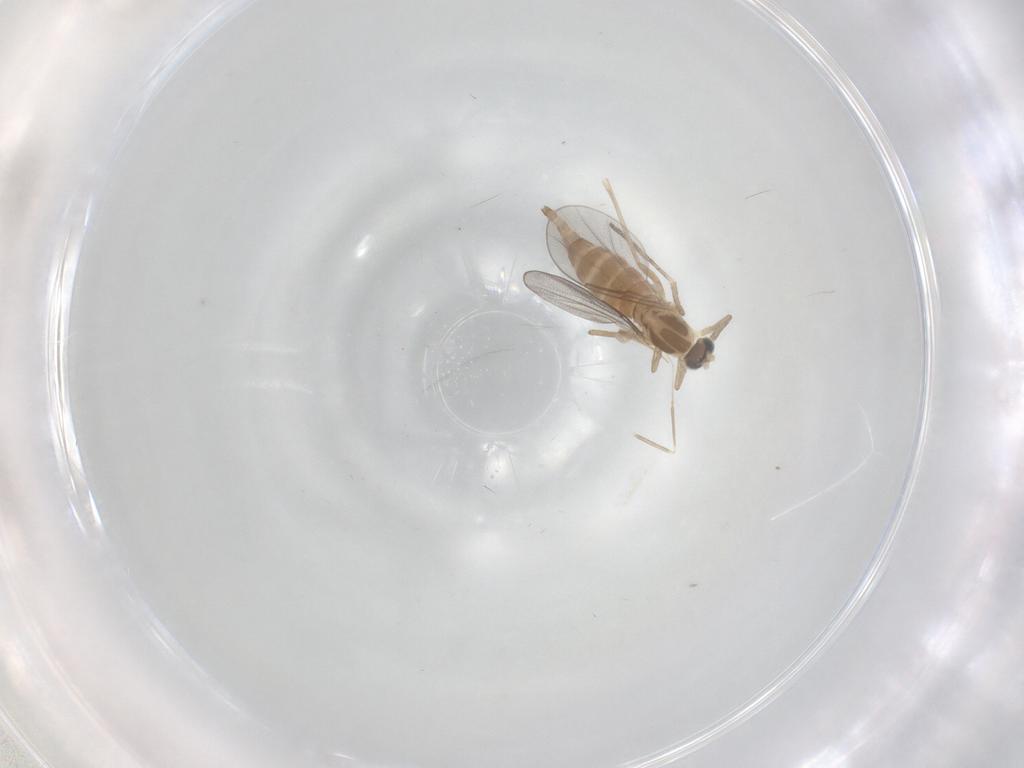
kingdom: Animalia
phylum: Arthropoda
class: Insecta
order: Diptera
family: Cecidomyiidae
